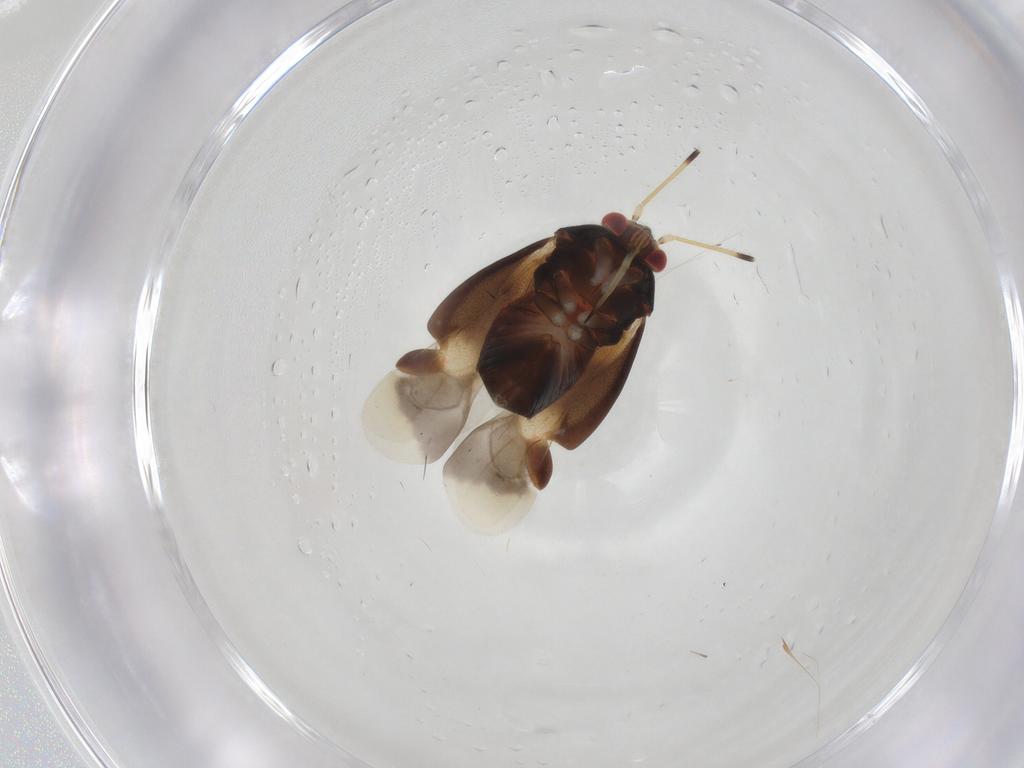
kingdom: Animalia
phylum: Arthropoda
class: Insecta
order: Hemiptera
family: Miridae
